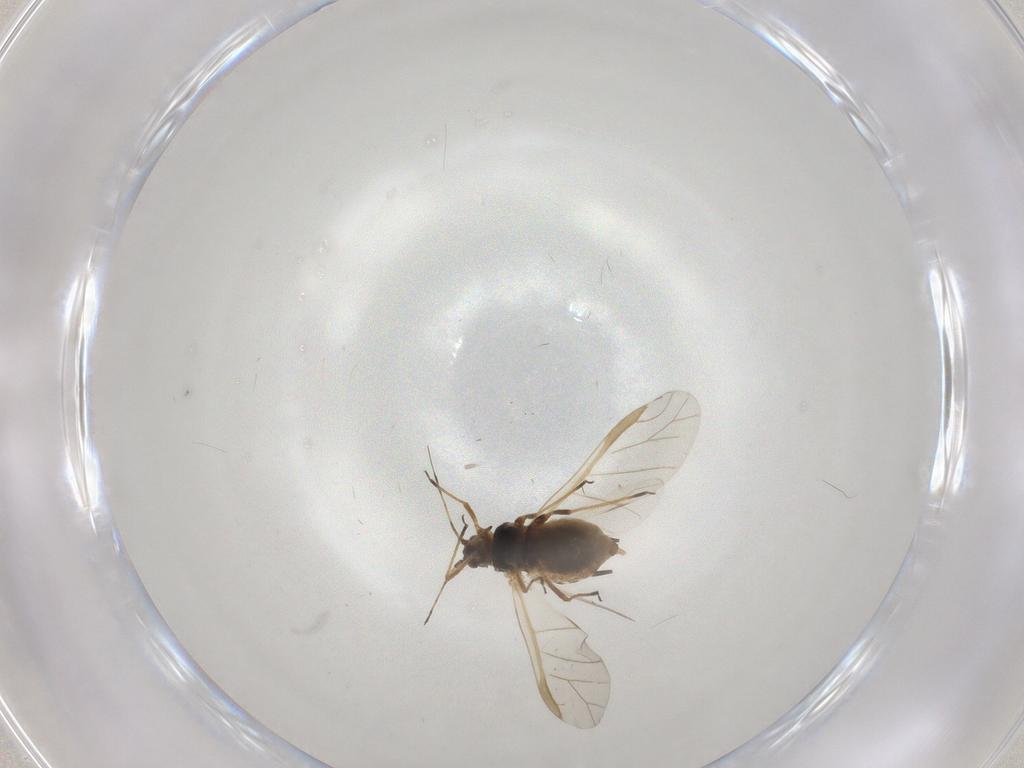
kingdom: Animalia
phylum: Arthropoda
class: Insecta
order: Hemiptera
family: Aphididae
